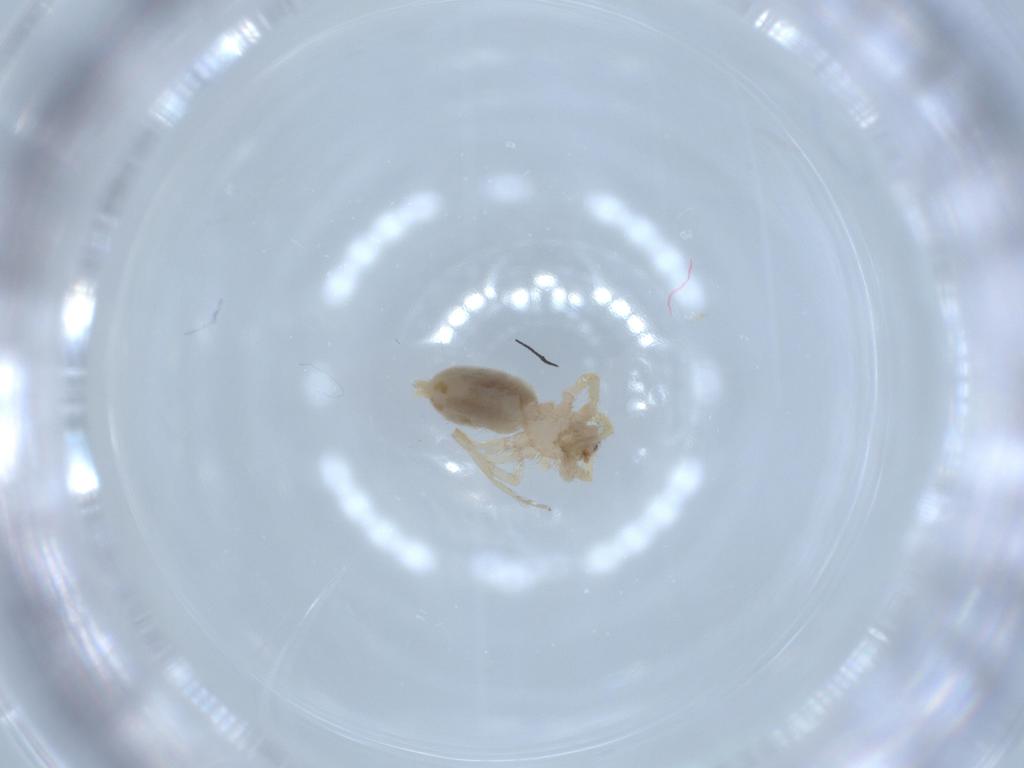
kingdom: Animalia
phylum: Arthropoda
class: Arachnida
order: Araneae
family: Oonopidae
